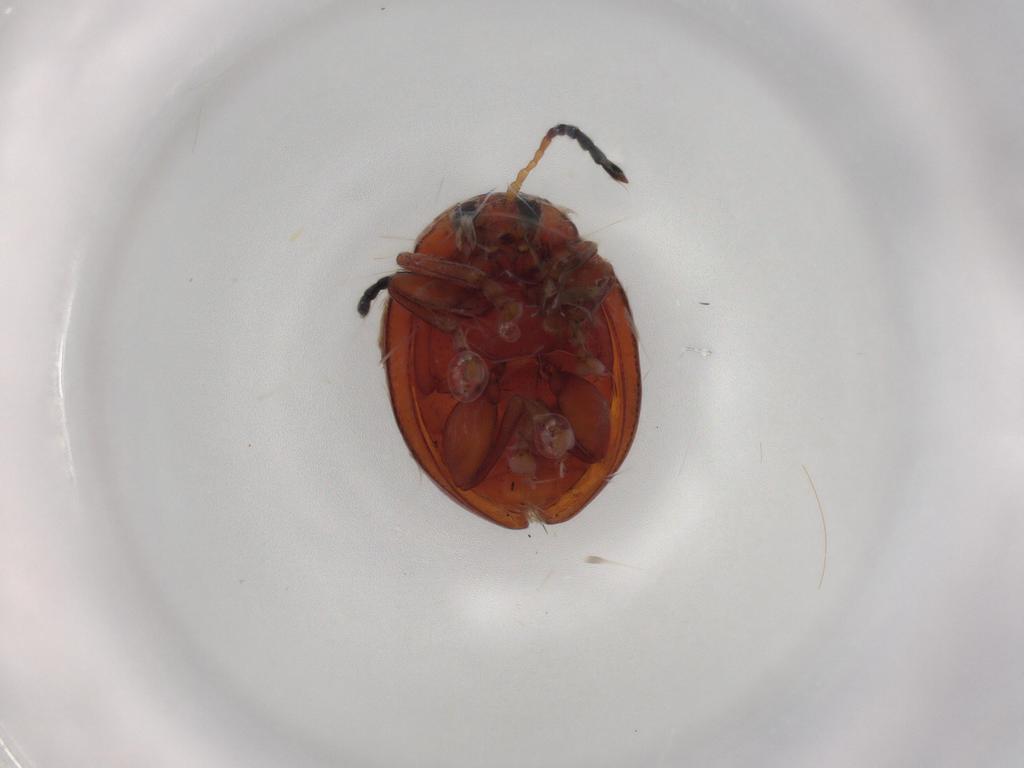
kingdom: Animalia
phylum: Arthropoda
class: Insecta
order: Coleoptera
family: Chrysomelidae
